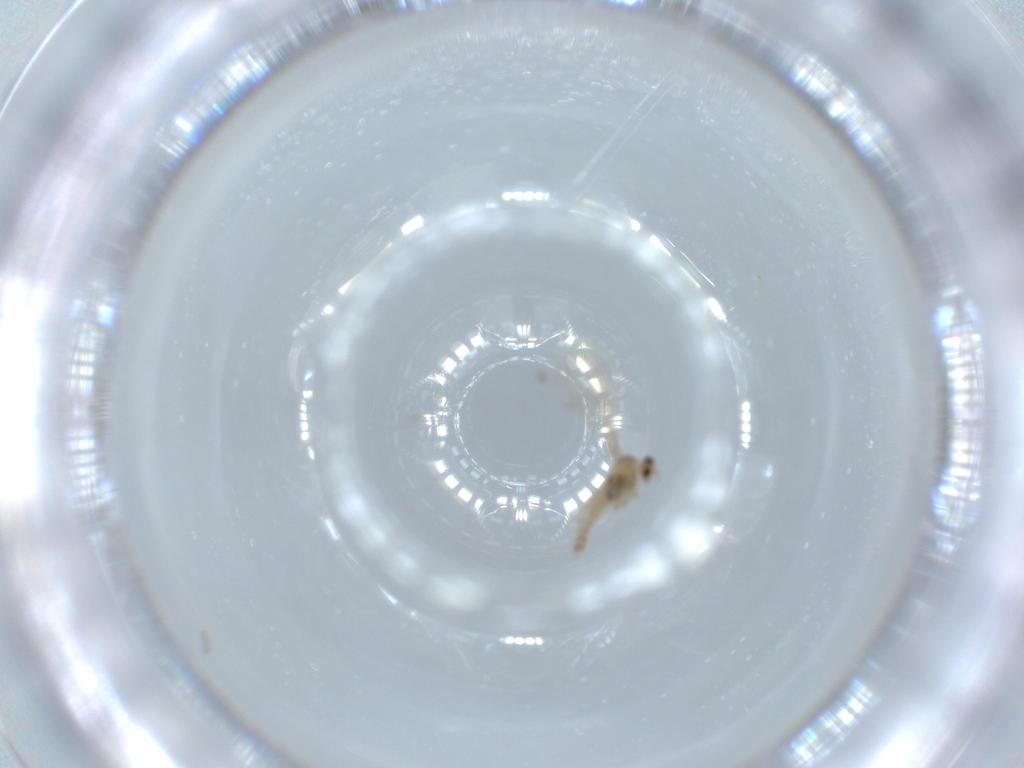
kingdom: Animalia
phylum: Arthropoda
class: Insecta
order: Diptera
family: Cecidomyiidae
